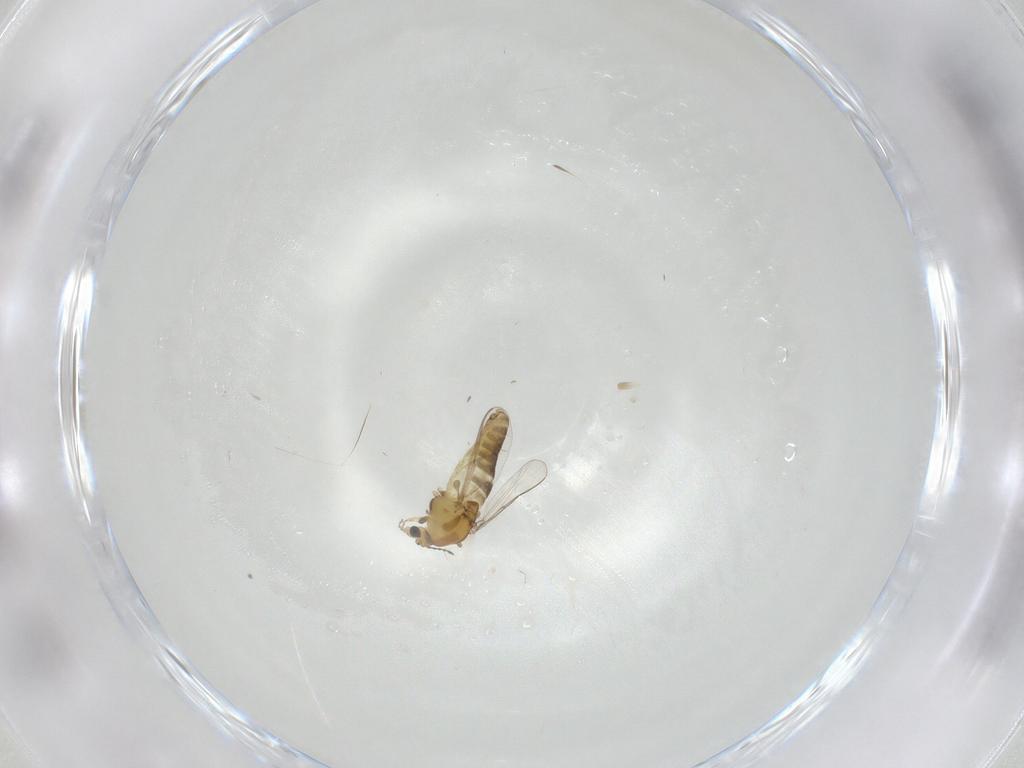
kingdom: Animalia
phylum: Arthropoda
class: Insecta
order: Diptera
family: Chironomidae
